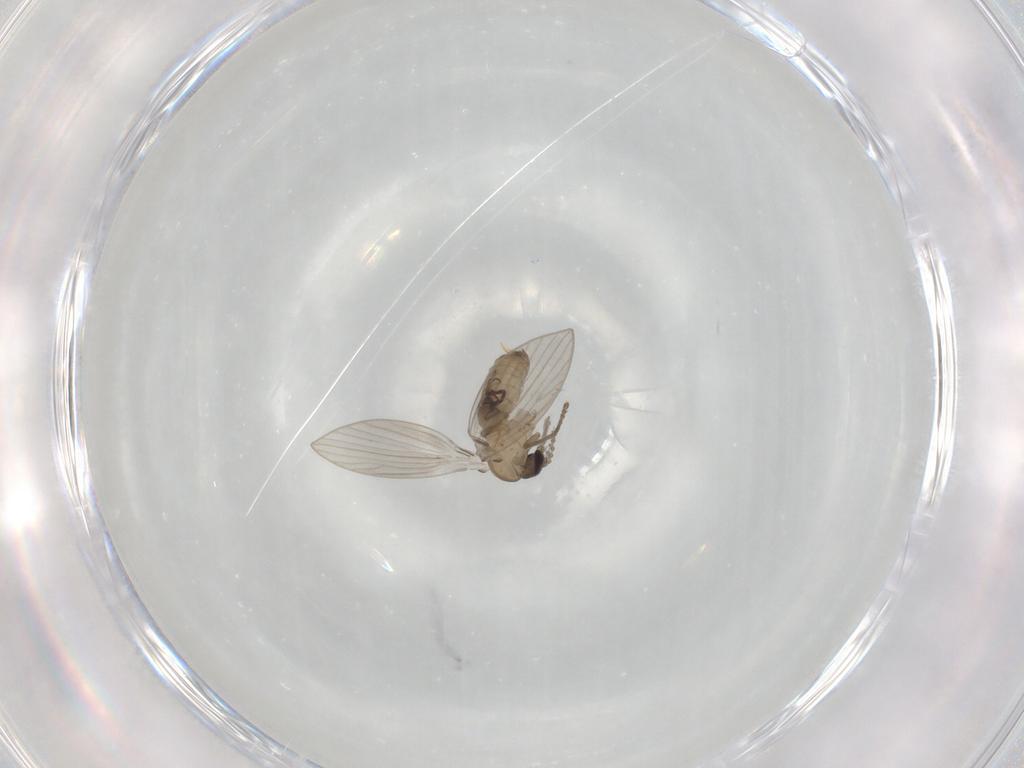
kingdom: Animalia
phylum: Arthropoda
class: Insecta
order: Diptera
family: Psychodidae
